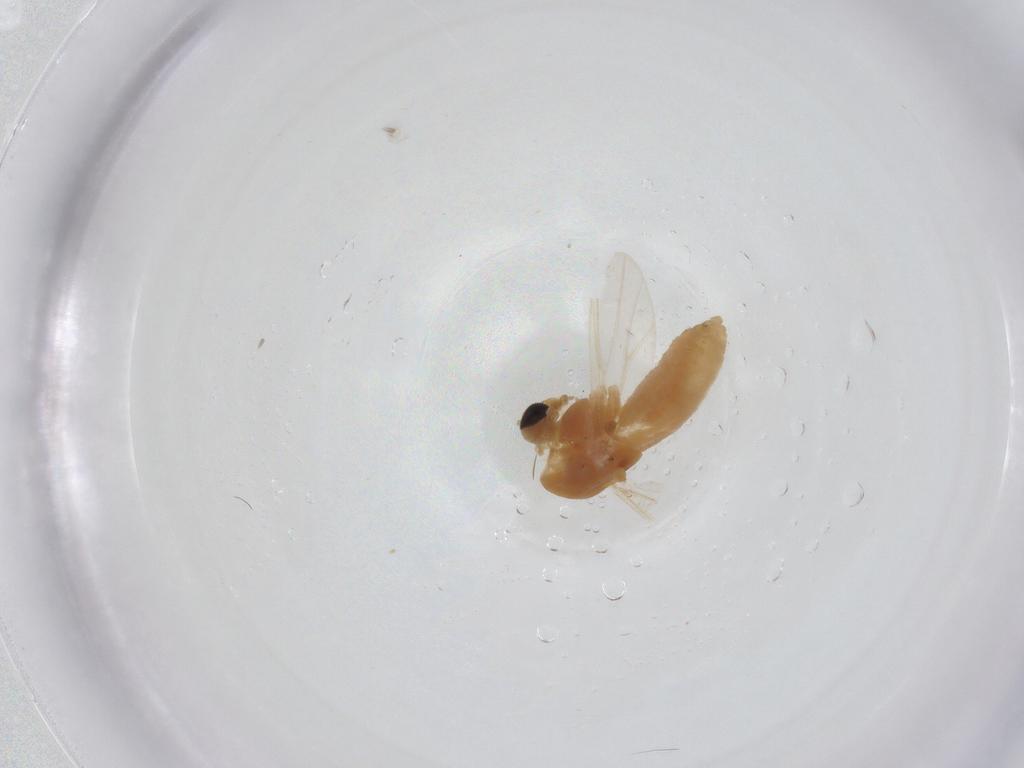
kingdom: Animalia
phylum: Arthropoda
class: Insecta
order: Diptera
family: Chironomidae
